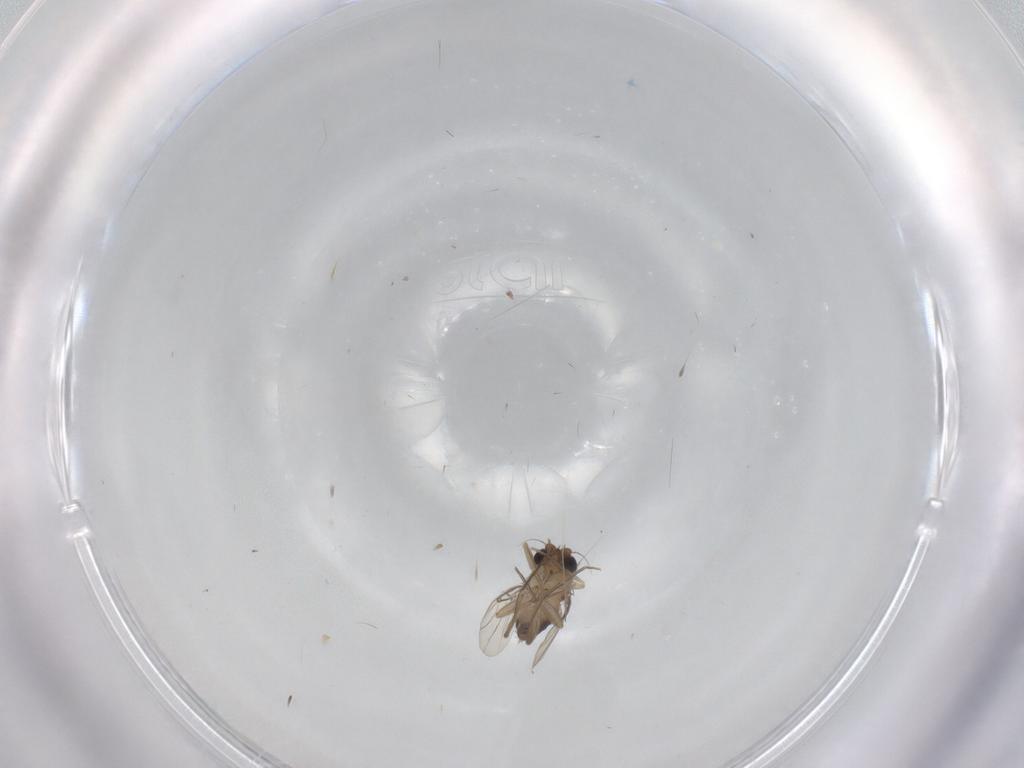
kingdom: Animalia
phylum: Arthropoda
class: Insecta
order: Diptera
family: Phoridae
